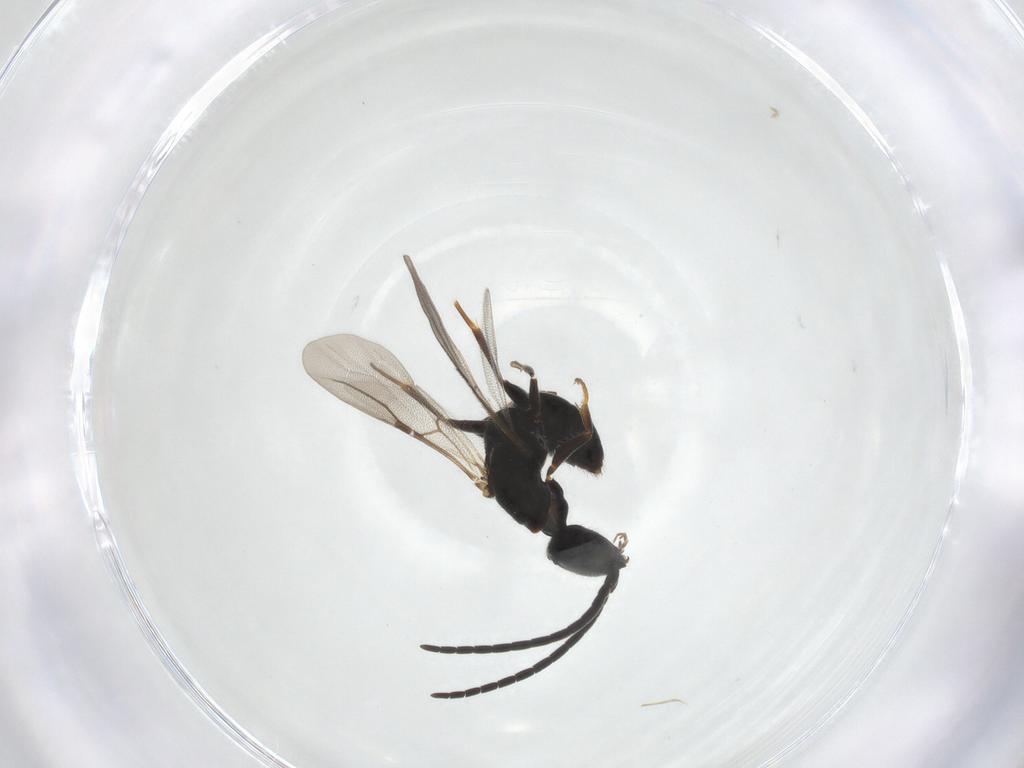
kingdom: Animalia
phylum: Arthropoda
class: Insecta
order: Hymenoptera
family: Bethylidae
